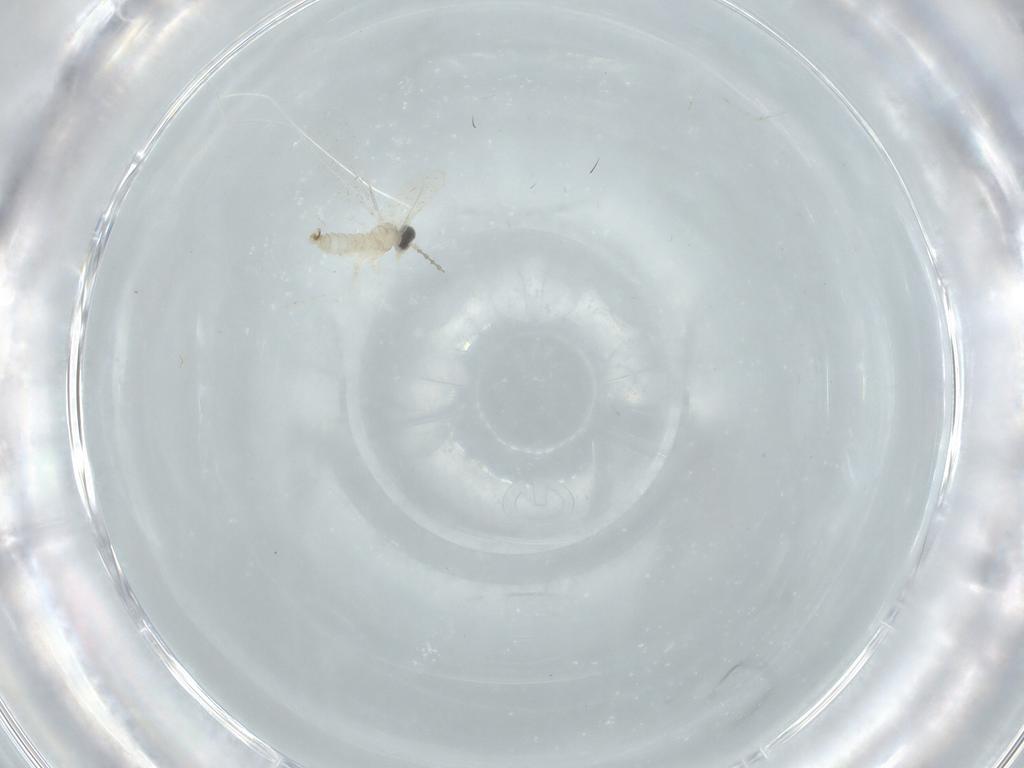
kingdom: Animalia
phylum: Arthropoda
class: Insecta
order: Diptera
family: Cecidomyiidae
